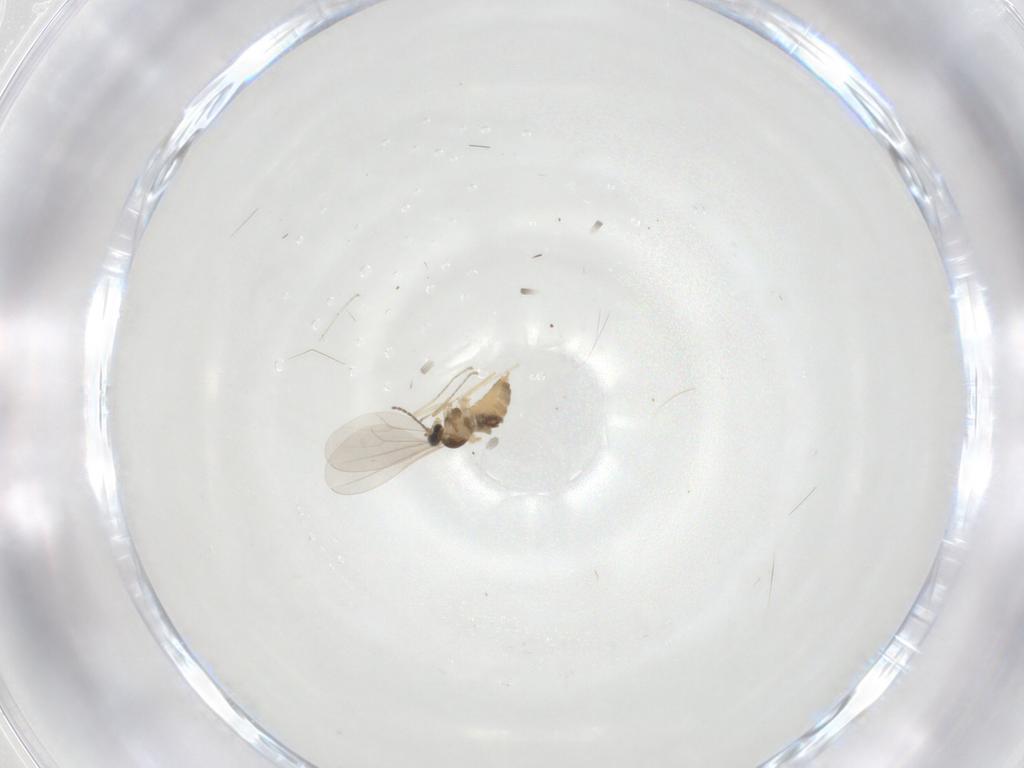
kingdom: Animalia
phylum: Arthropoda
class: Insecta
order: Diptera
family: Cecidomyiidae
